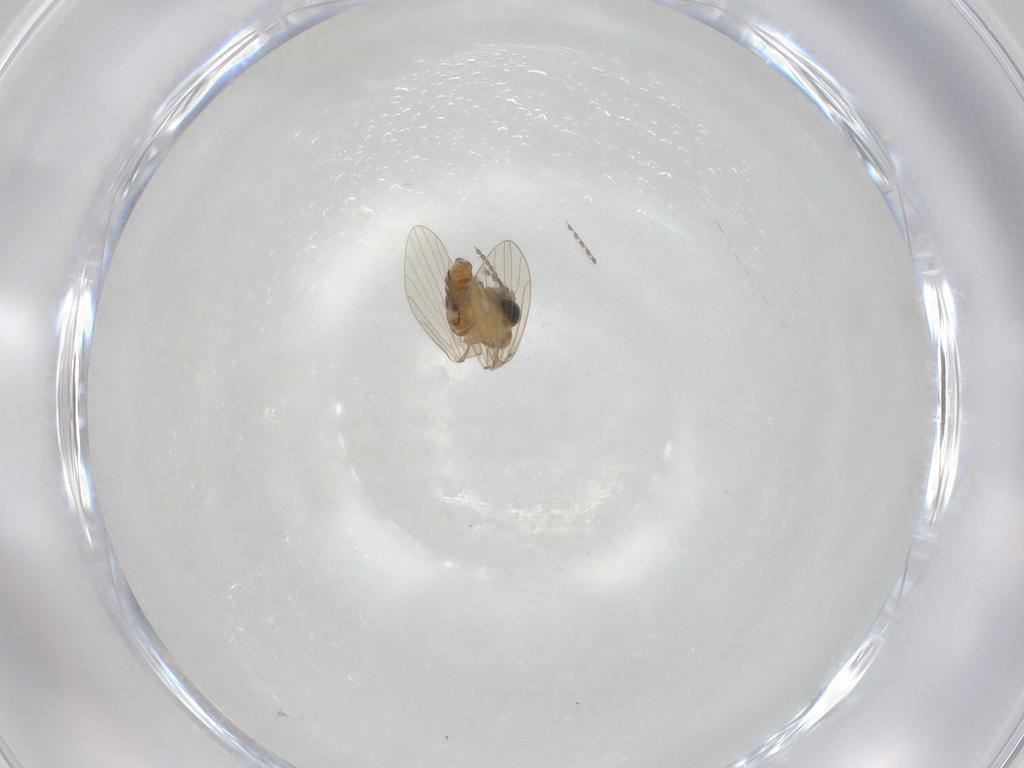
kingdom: Animalia
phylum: Arthropoda
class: Insecta
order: Diptera
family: Cecidomyiidae
